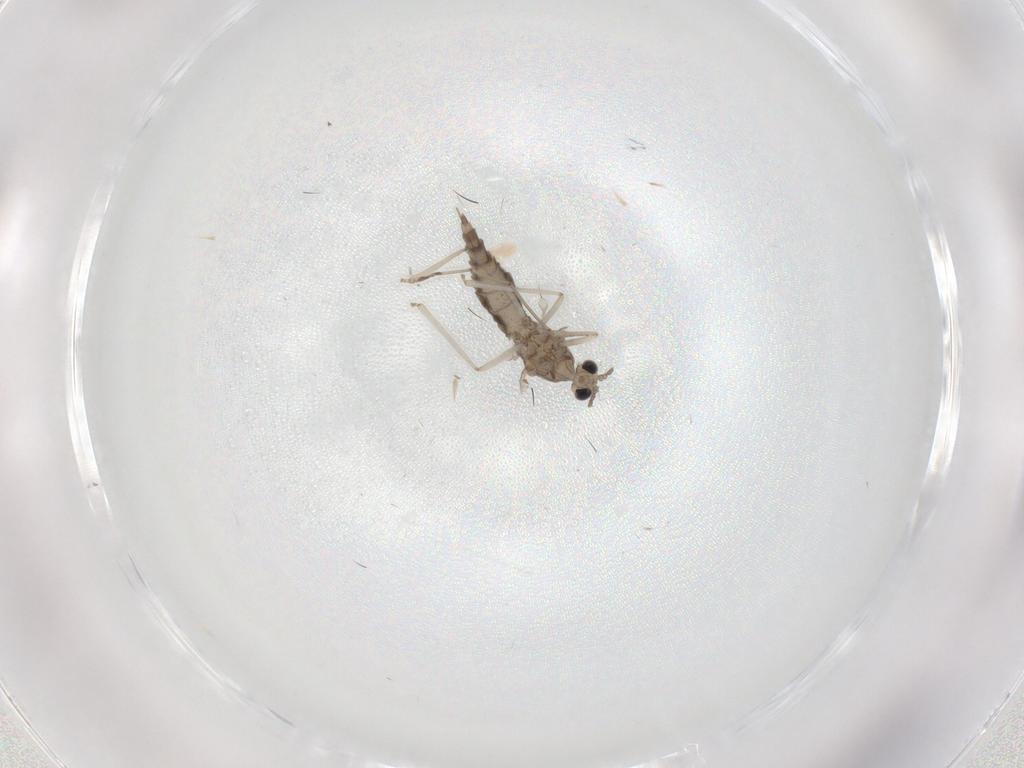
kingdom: Animalia
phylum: Arthropoda
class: Insecta
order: Diptera
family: Cecidomyiidae
